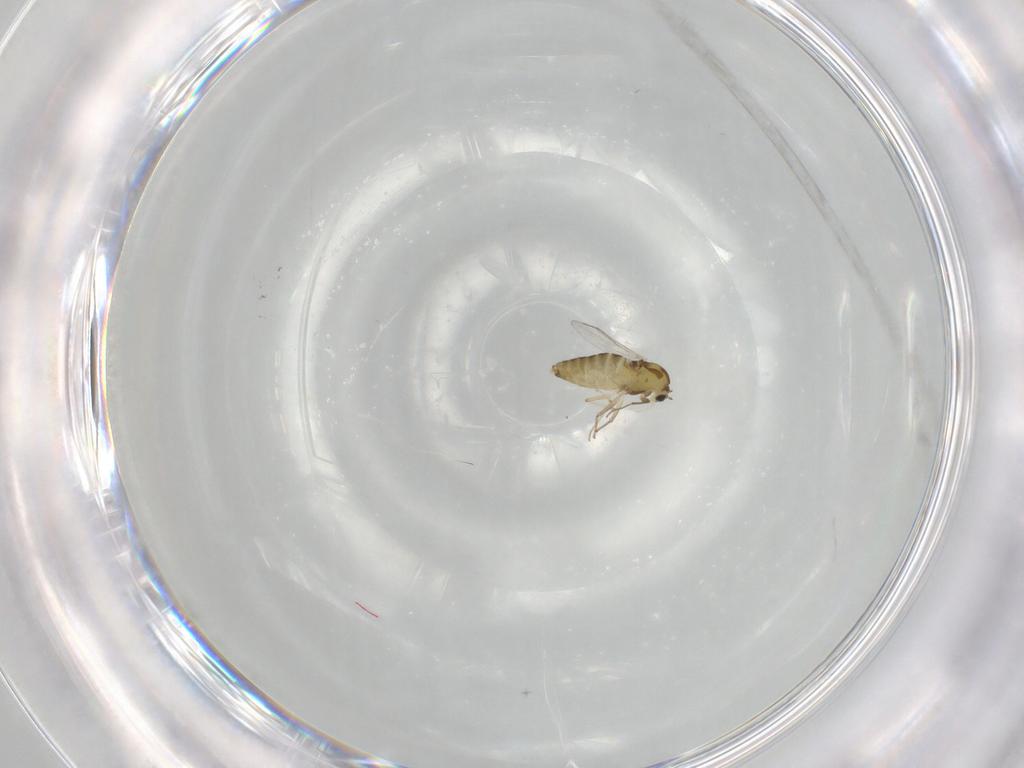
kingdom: Animalia
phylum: Arthropoda
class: Insecta
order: Diptera
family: Chironomidae
